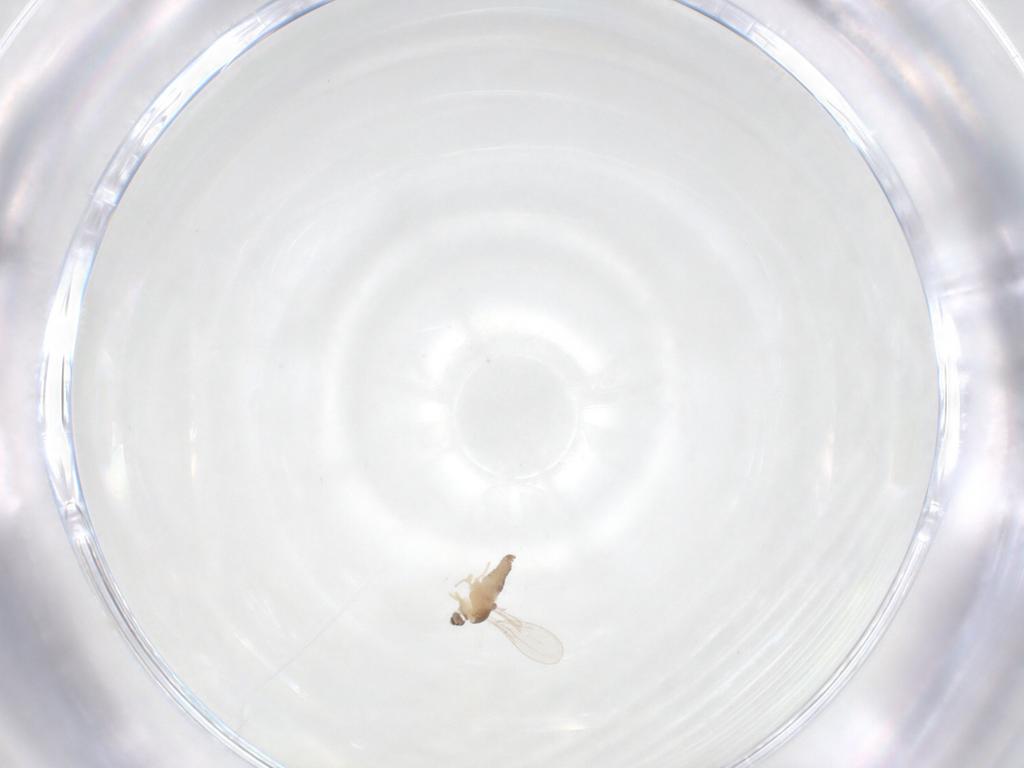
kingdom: Animalia
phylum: Arthropoda
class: Insecta
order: Diptera
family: Cecidomyiidae
